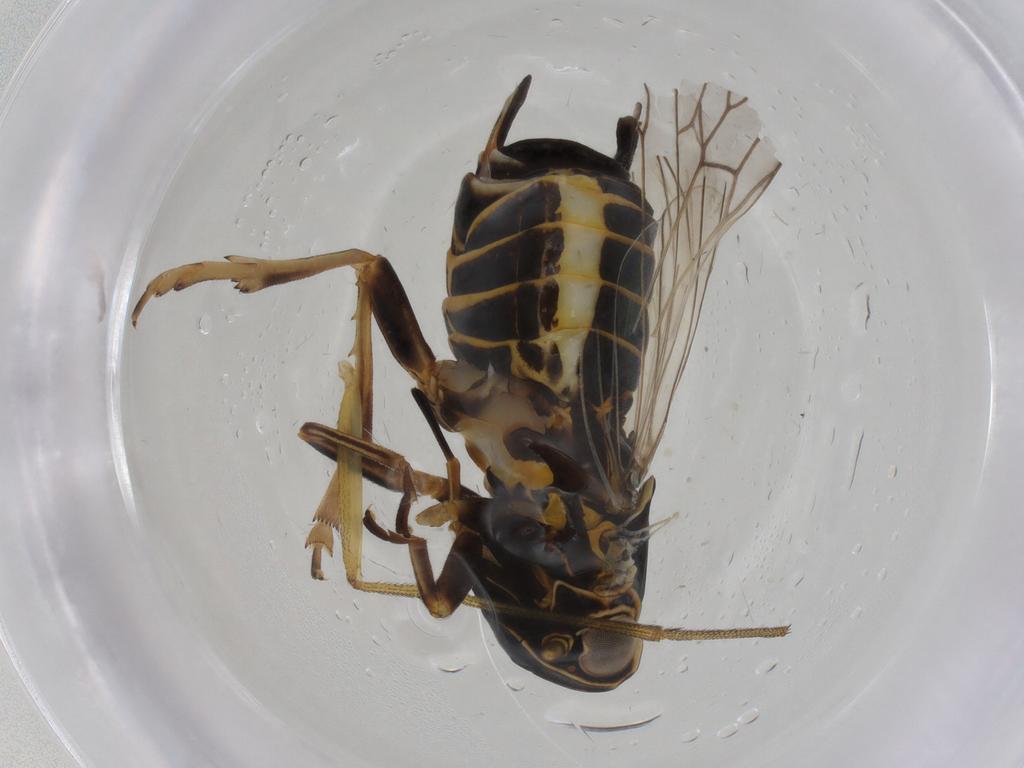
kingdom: Animalia
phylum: Arthropoda
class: Insecta
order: Hemiptera
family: Cixiidae
